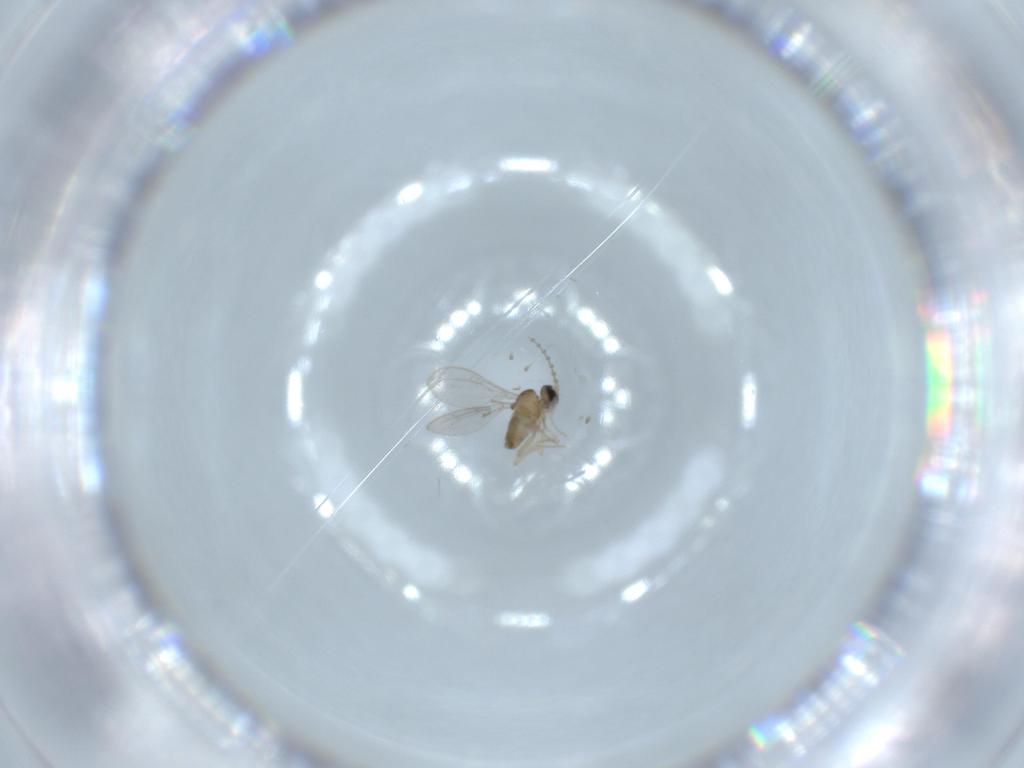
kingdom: Animalia
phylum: Arthropoda
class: Insecta
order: Diptera
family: Cecidomyiidae
